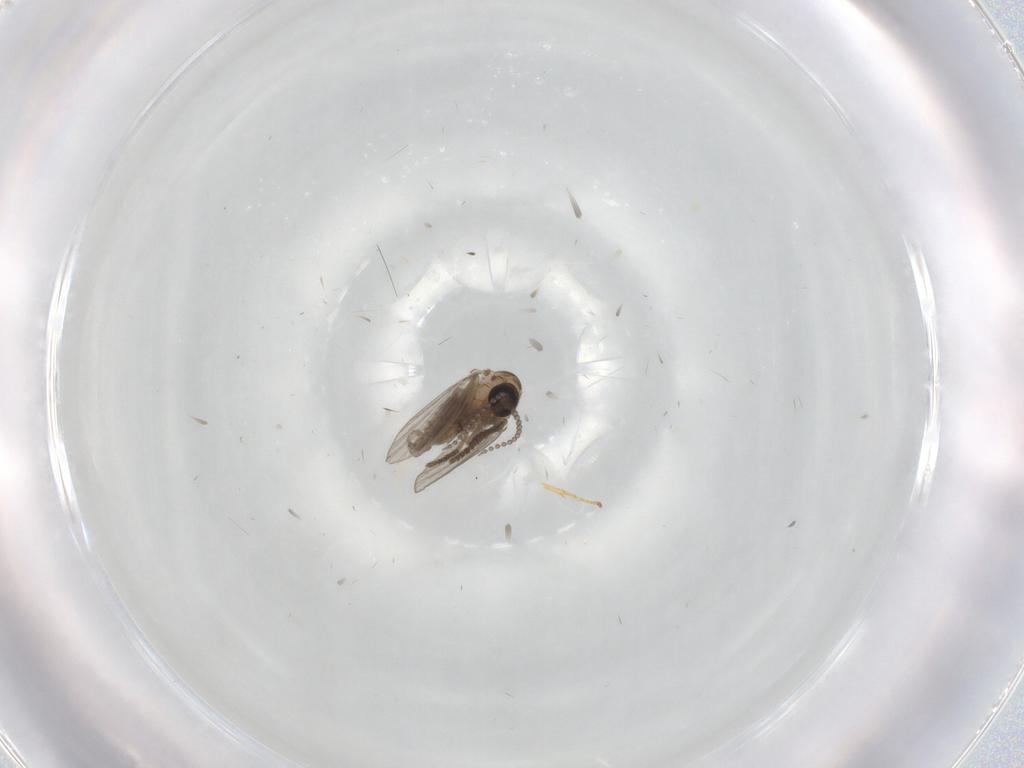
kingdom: Animalia
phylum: Arthropoda
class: Insecta
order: Diptera
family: Psychodidae
